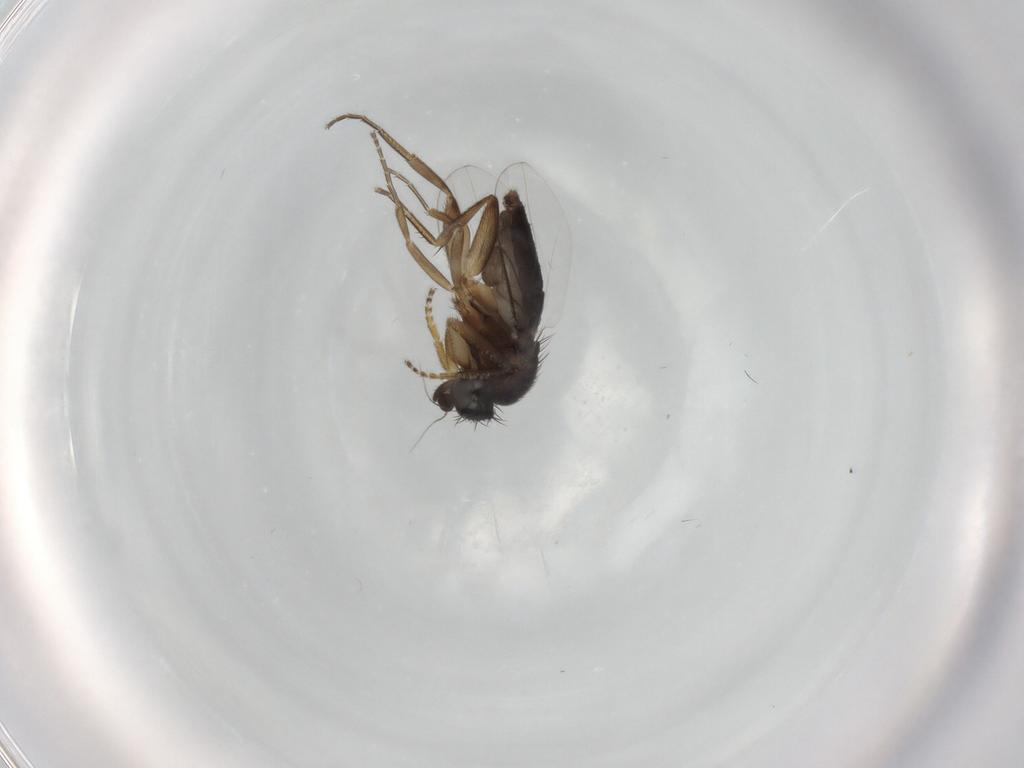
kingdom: Animalia
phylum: Arthropoda
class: Insecta
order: Diptera
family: Phoridae
